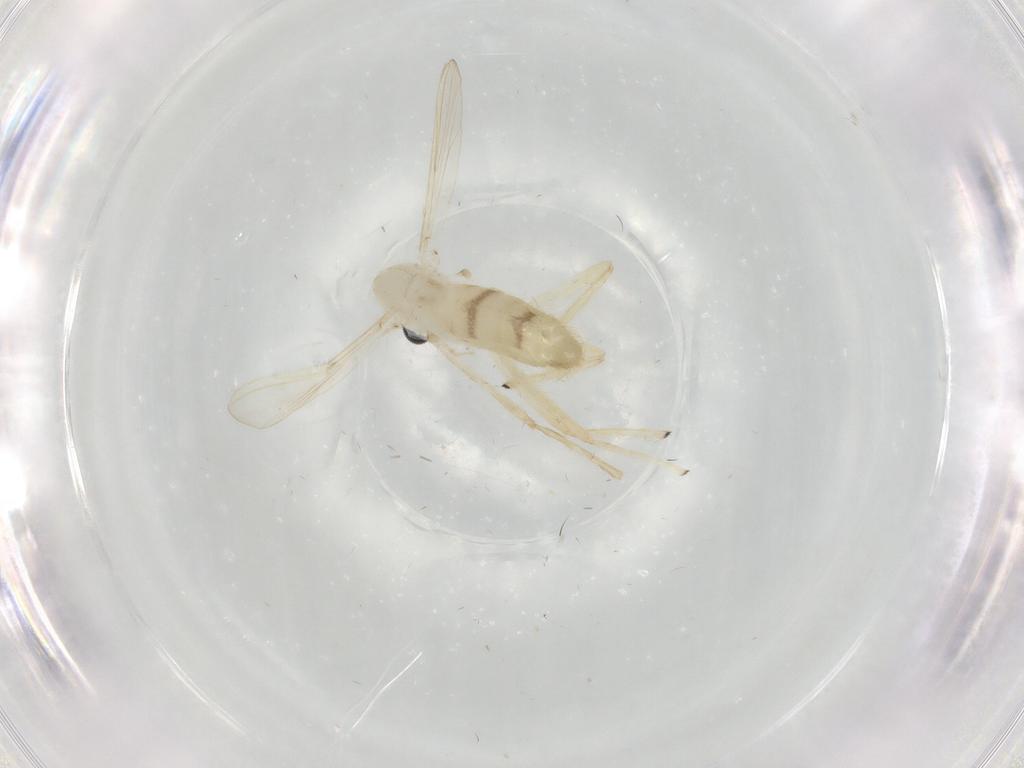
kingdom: Animalia
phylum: Arthropoda
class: Insecta
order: Diptera
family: Chironomidae
